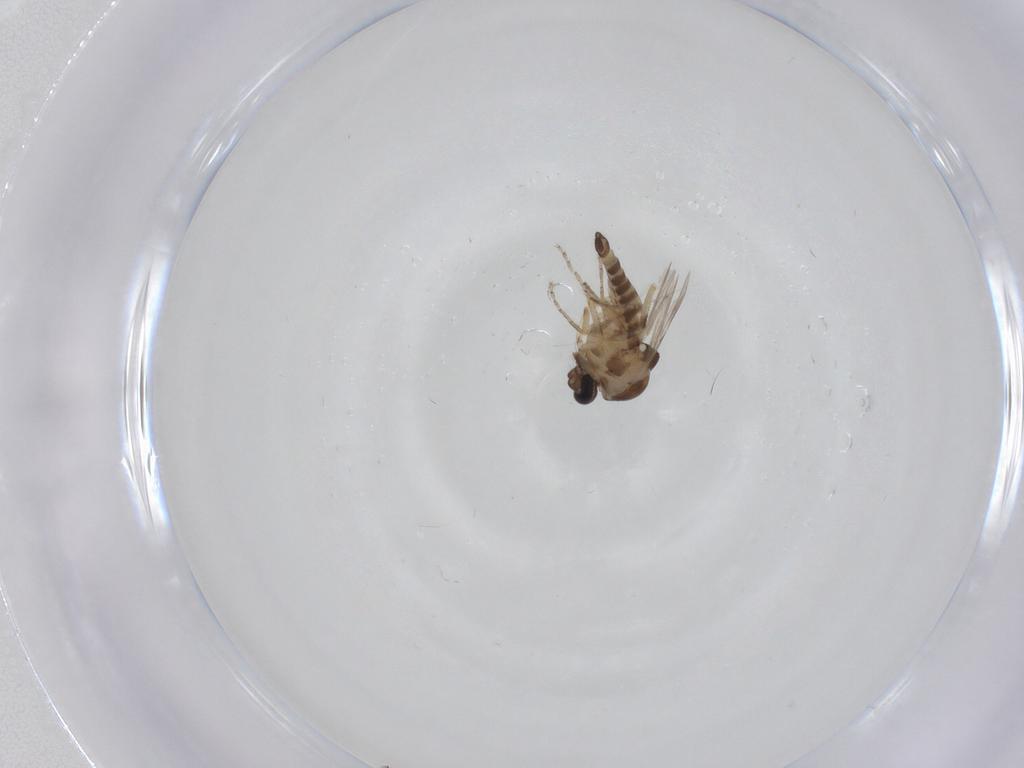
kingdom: Animalia
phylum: Arthropoda
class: Insecta
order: Diptera
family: Ceratopogonidae
